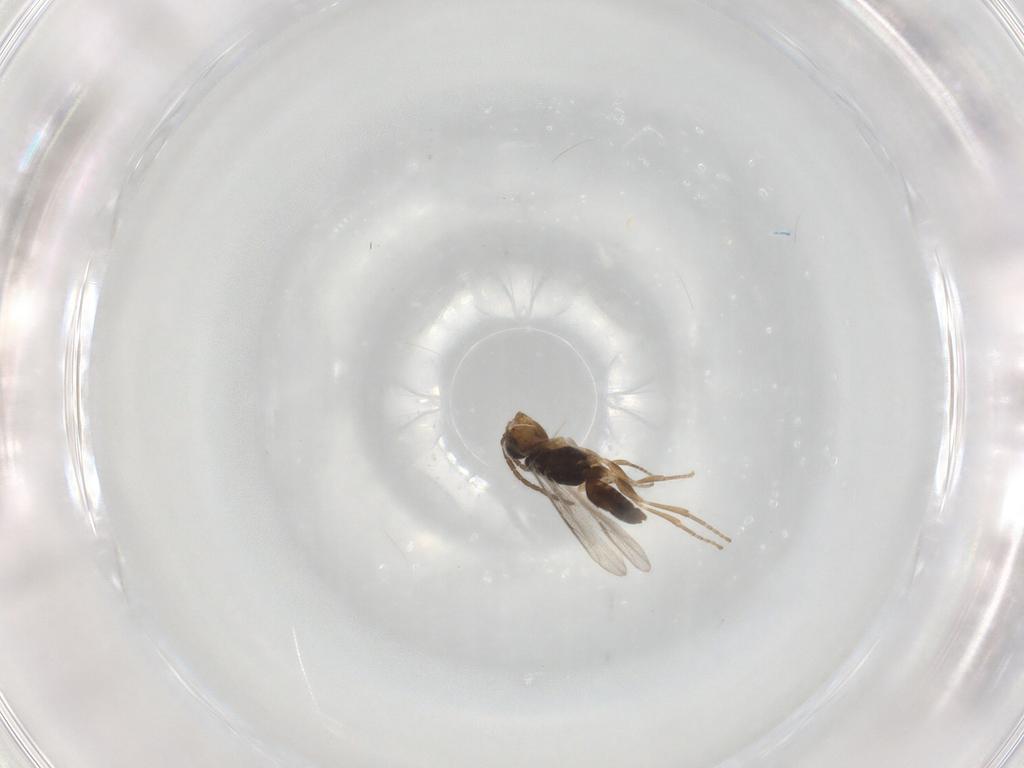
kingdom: Animalia
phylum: Arthropoda
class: Insecta
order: Hymenoptera
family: Dryinidae
